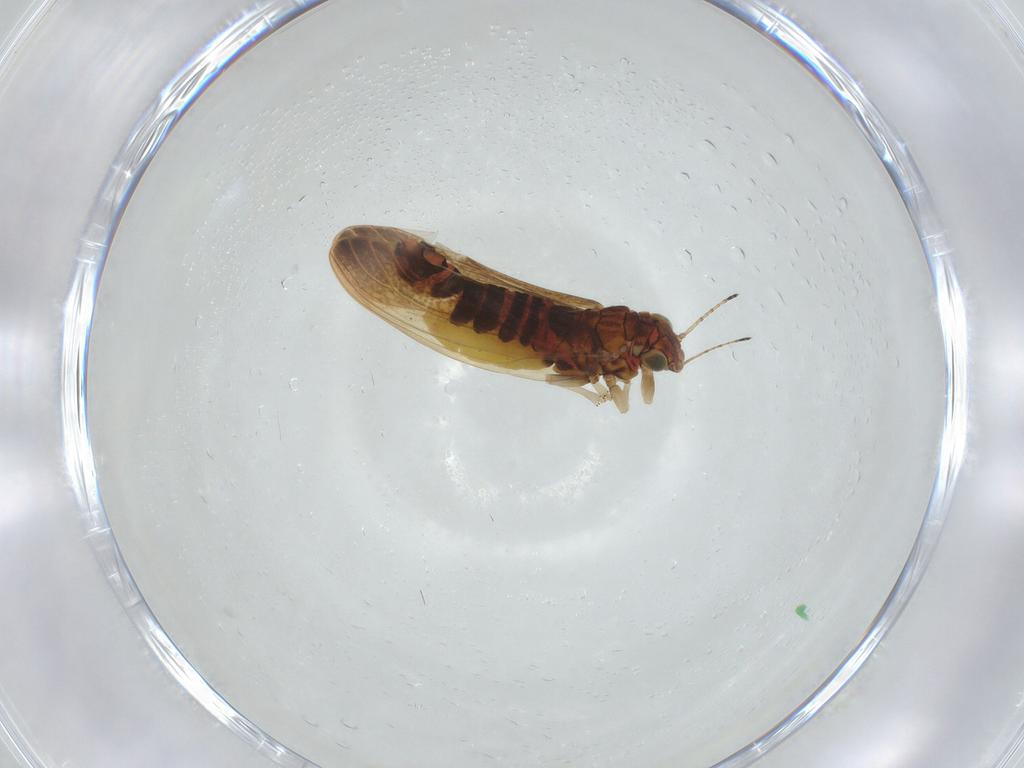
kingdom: Animalia
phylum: Arthropoda
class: Insecta
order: Hemiptera
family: Aphalaridae
